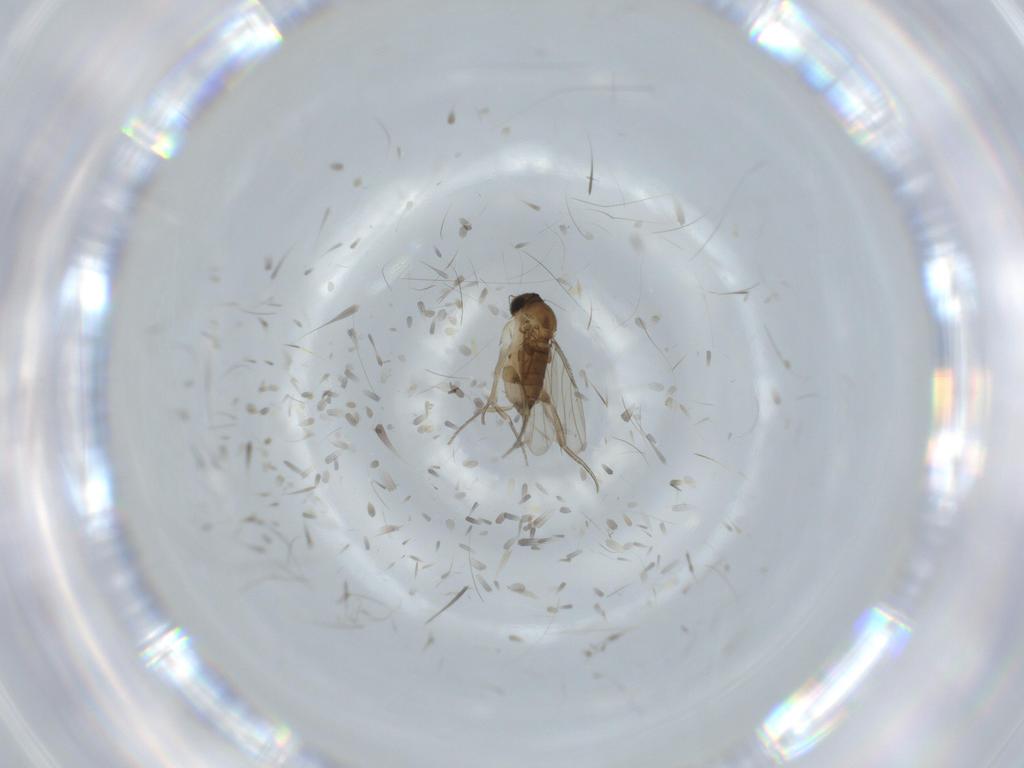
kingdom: Animalia
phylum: Arthropoda
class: Insecta
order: Diptera
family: Phoridae
